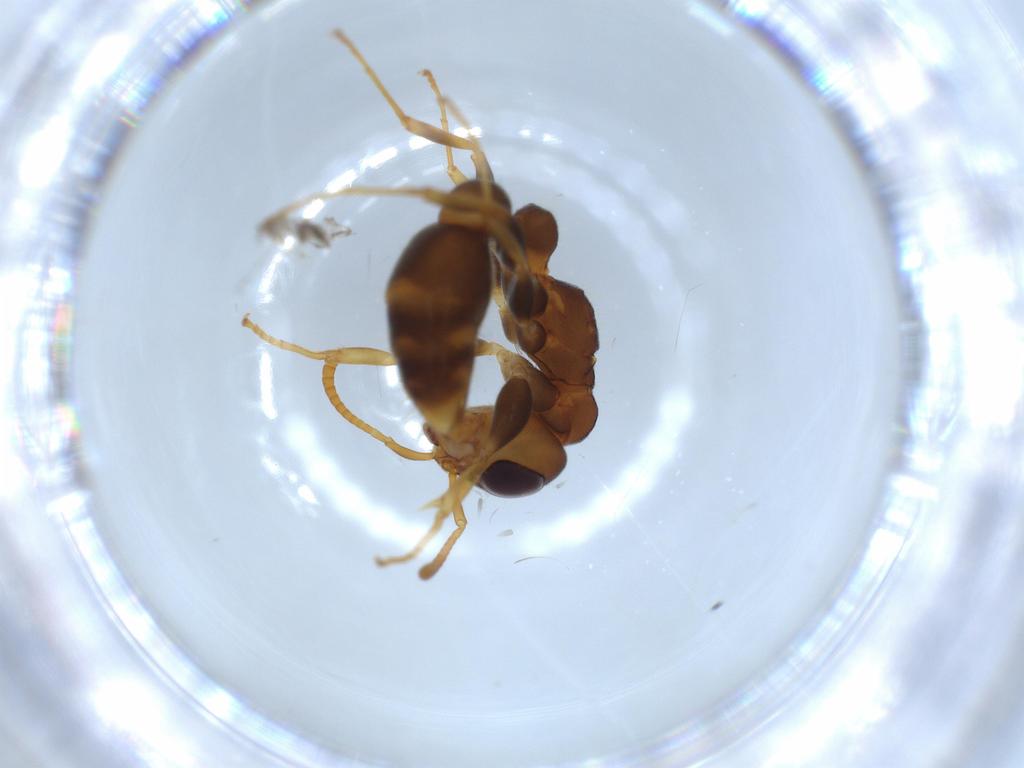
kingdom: Animalia
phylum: Arthropoda
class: Insecta
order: Hymenoptera
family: Formicidae
